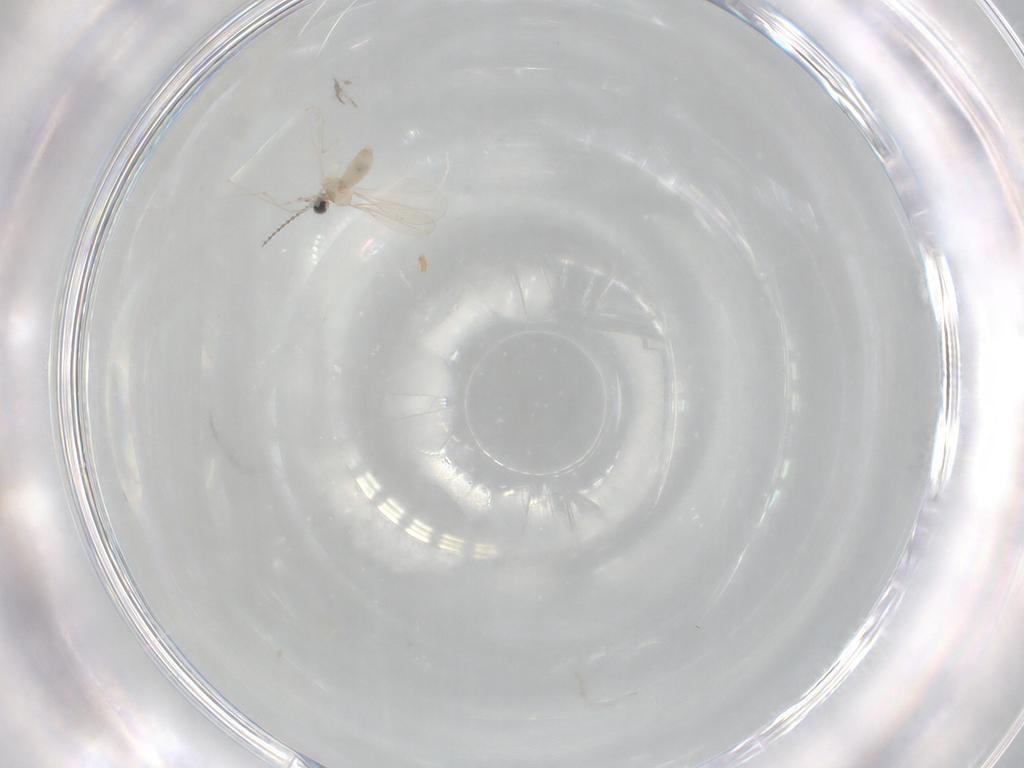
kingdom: Animalia
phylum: Arthropoda
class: Insecta
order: Diptera
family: Cecidomyiidae
